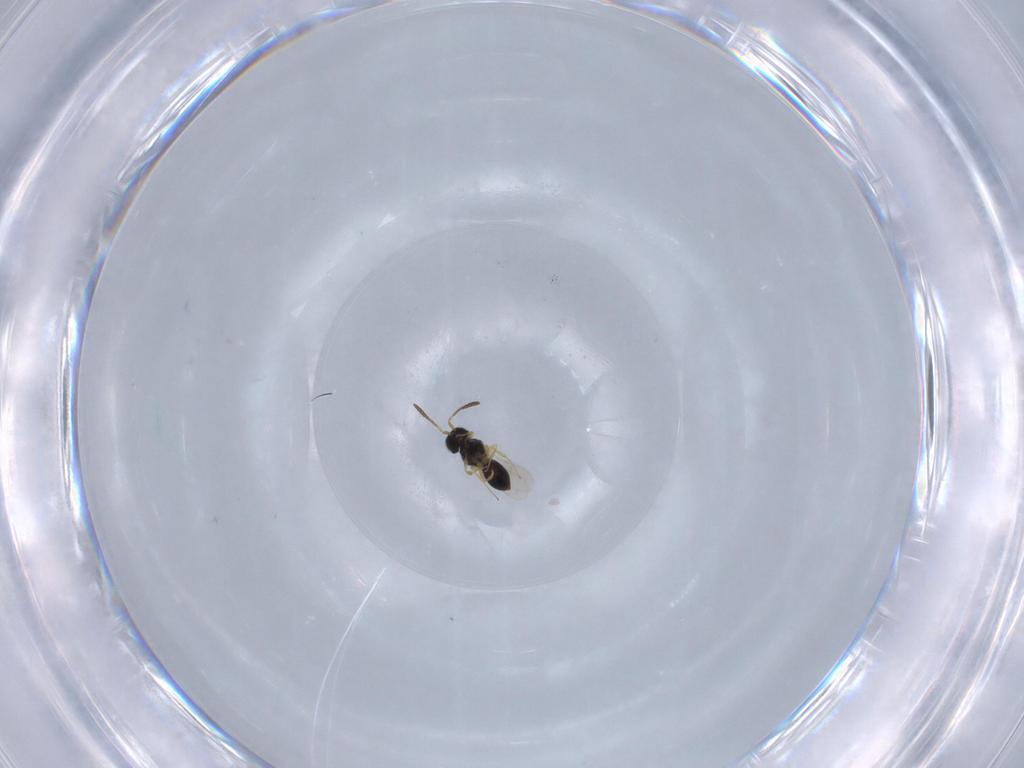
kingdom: Animalia
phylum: Arthropoda
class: Insecta
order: Hymenoptera
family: Scelionidae
